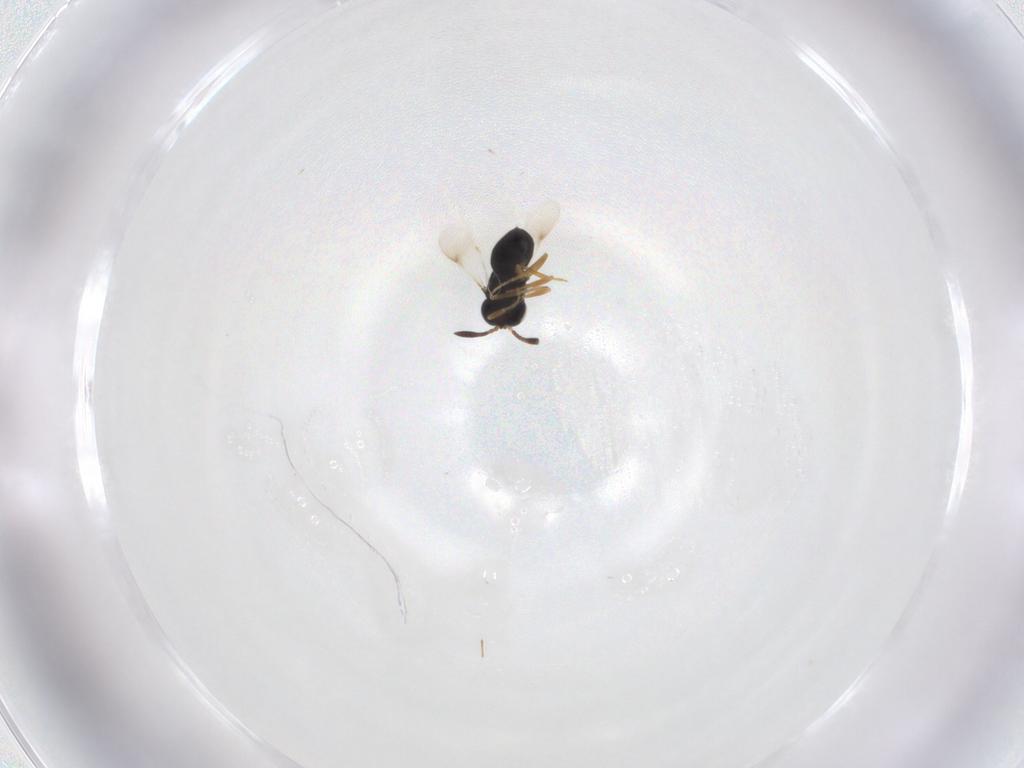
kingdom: Animalia
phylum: Arthropoda
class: Insecta
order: Hymenoptera
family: Scelionidae
